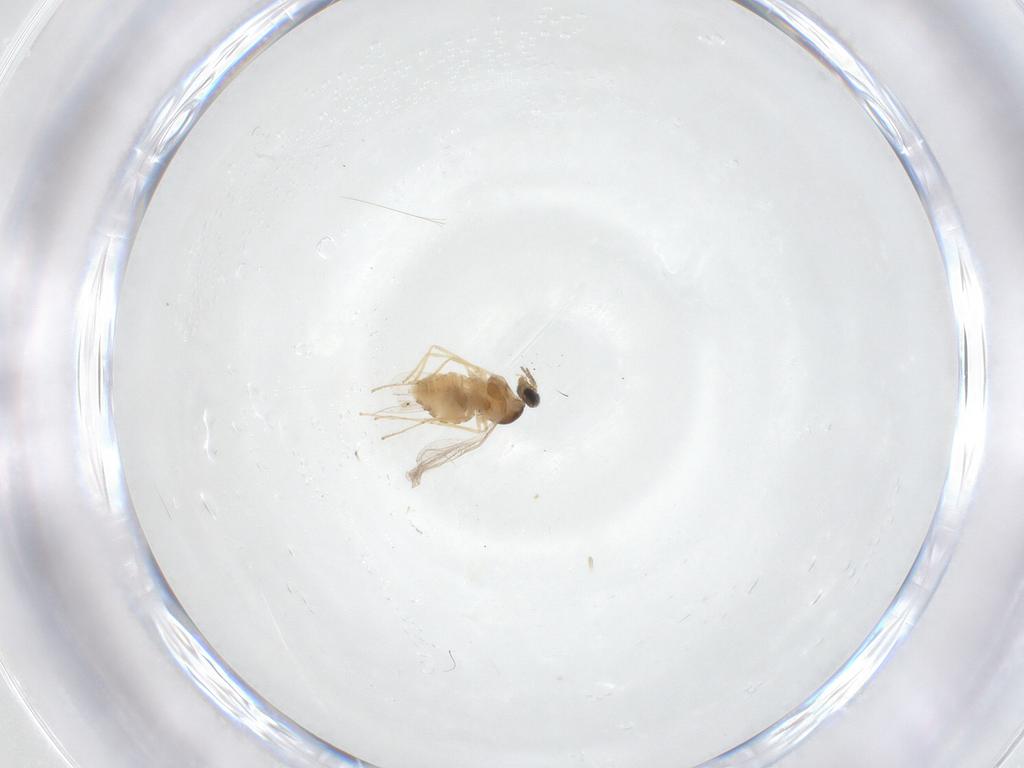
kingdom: Animalia
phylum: Arthropoda
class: Insecta
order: Diptera
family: Cecidomyiidae
